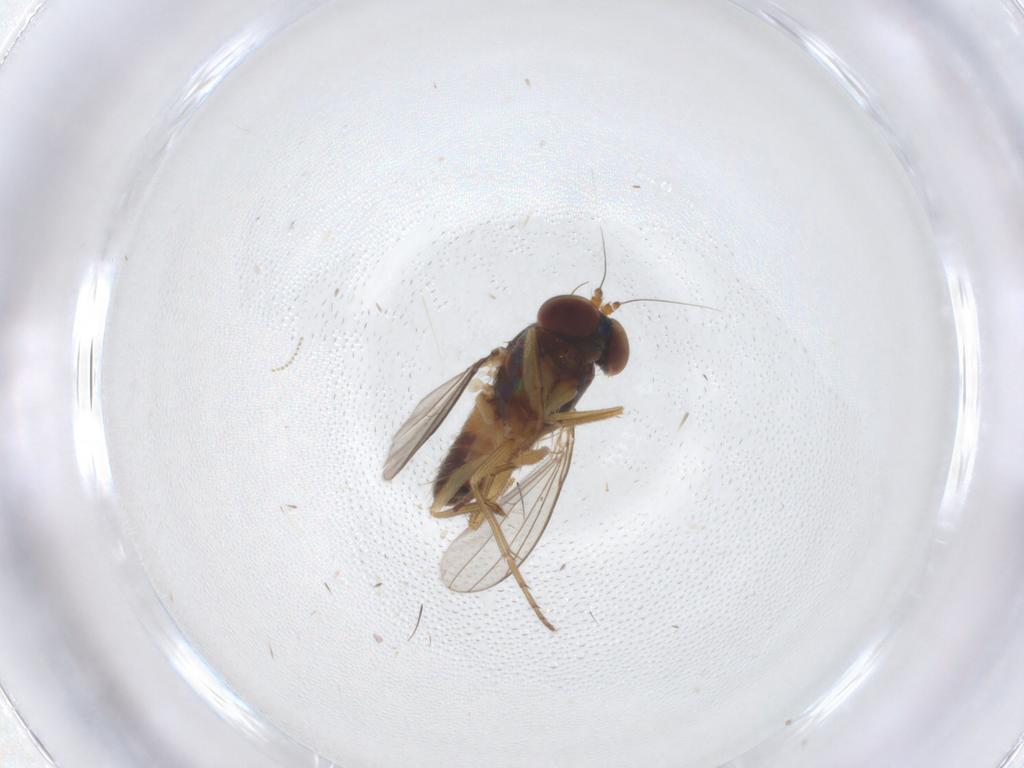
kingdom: Animalia
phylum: Arthropoda
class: Insecta
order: Diptera
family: Dolichopodidae
